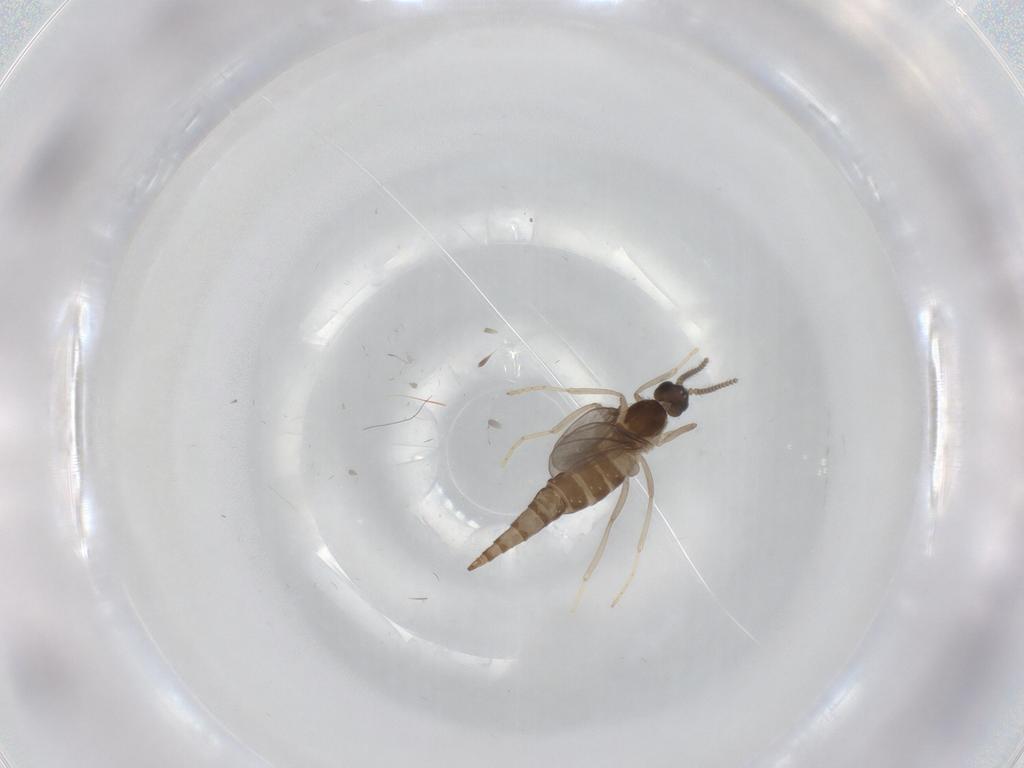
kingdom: Animalia
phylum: Arthropoda
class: Insecta
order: Diptera
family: Cecidomyiidae
